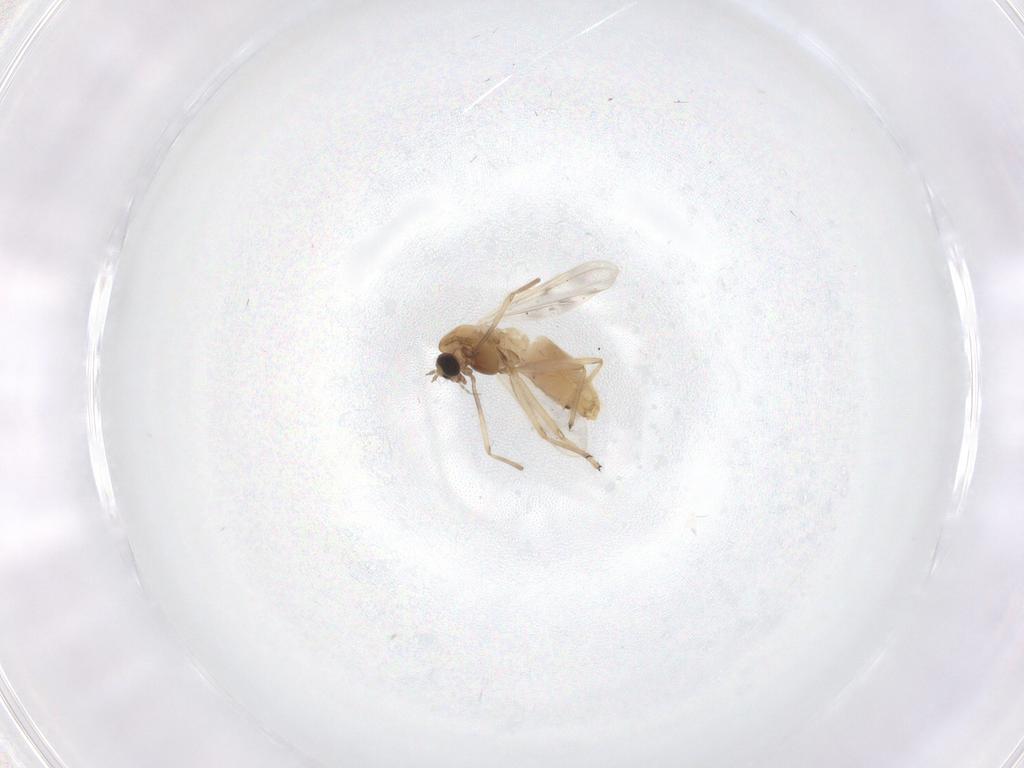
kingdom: Animalia
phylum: Arthropoda
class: Insecta
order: Diptera
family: Chironomidae
